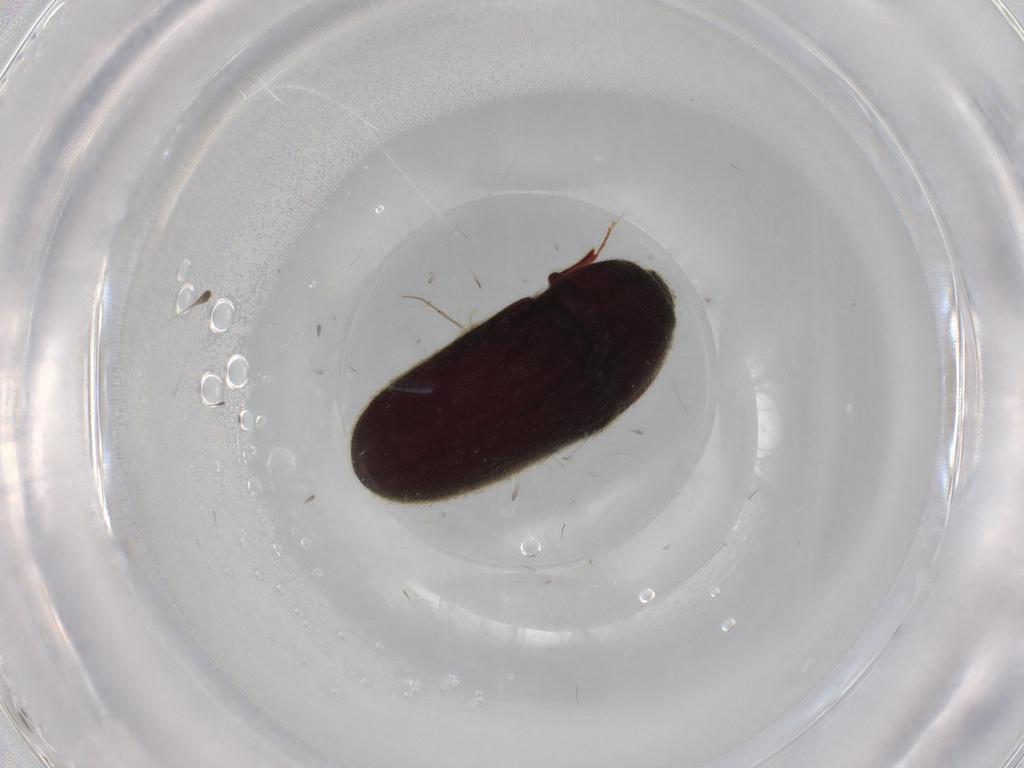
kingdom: Animalia
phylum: Arthropoda
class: Insecta
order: Coleoptera
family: Throscidae
